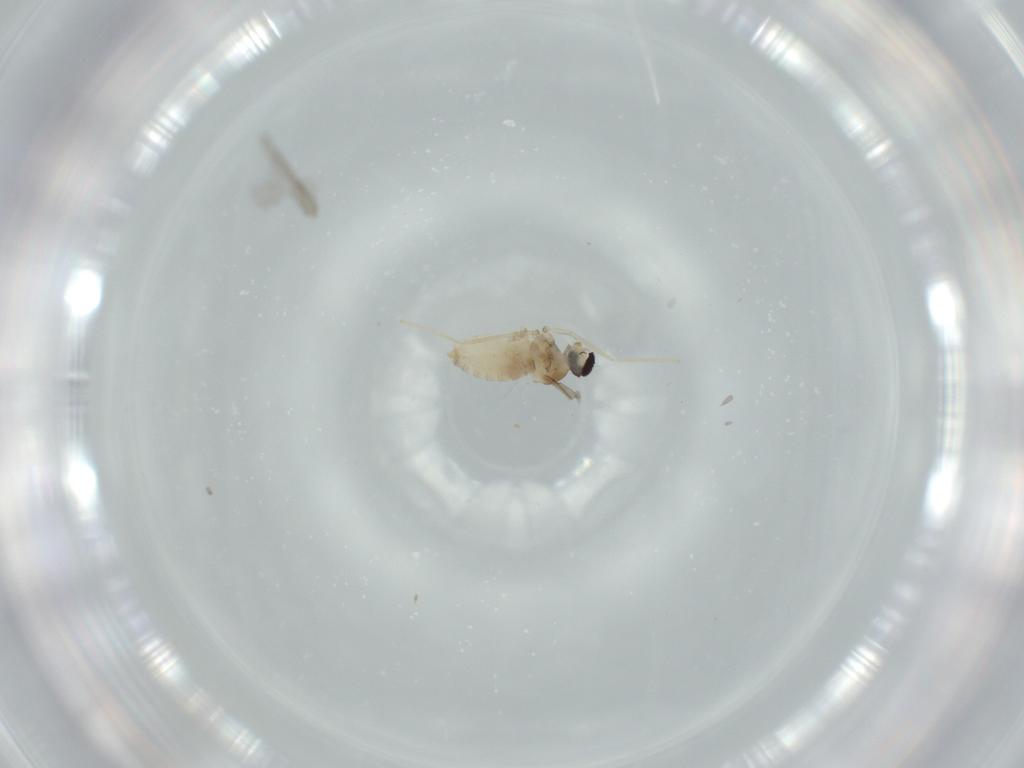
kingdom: Animalia
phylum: Arthropoda
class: Insecta
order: Diptera
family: Cecidomyiidae
